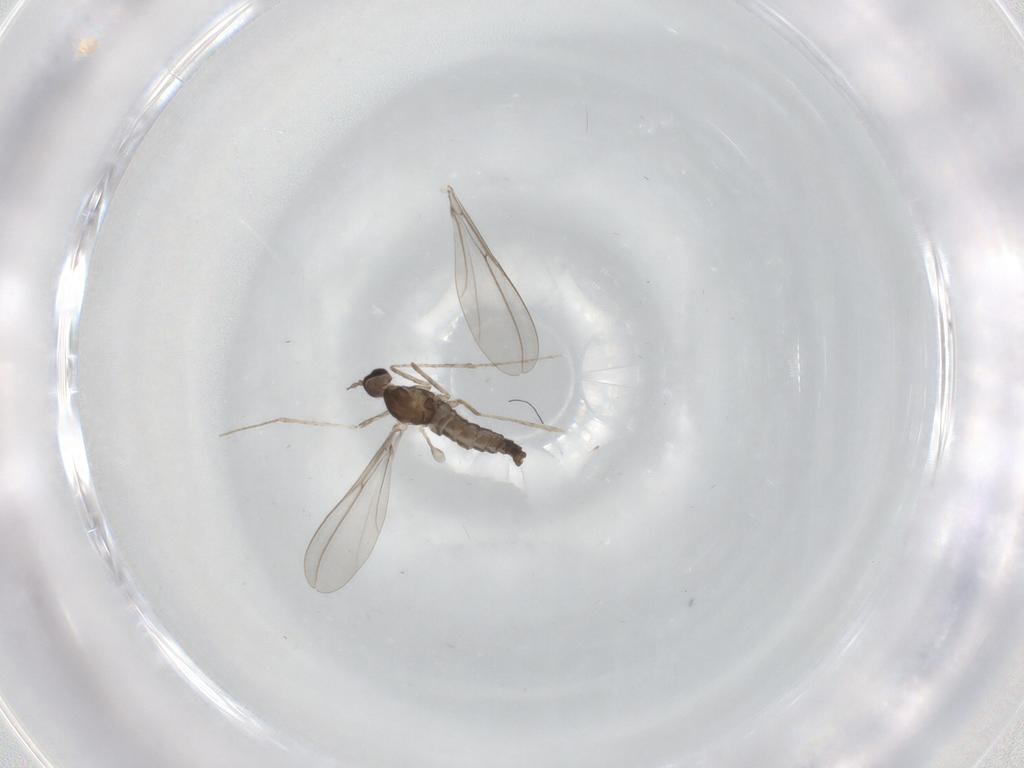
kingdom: Animalia
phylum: Arthropoda
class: Insecta
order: Diptera
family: Cecidomyiidae
